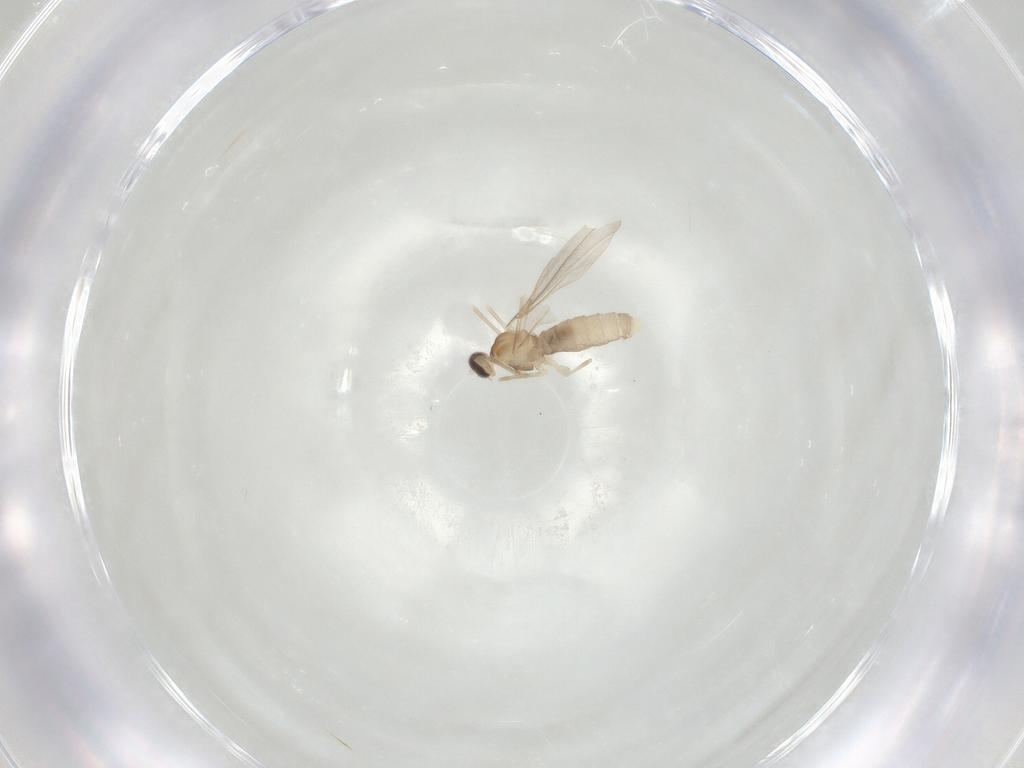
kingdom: Animalia
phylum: Arthropoda
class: Insecta
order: Diptera
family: Cecidomyiidae
